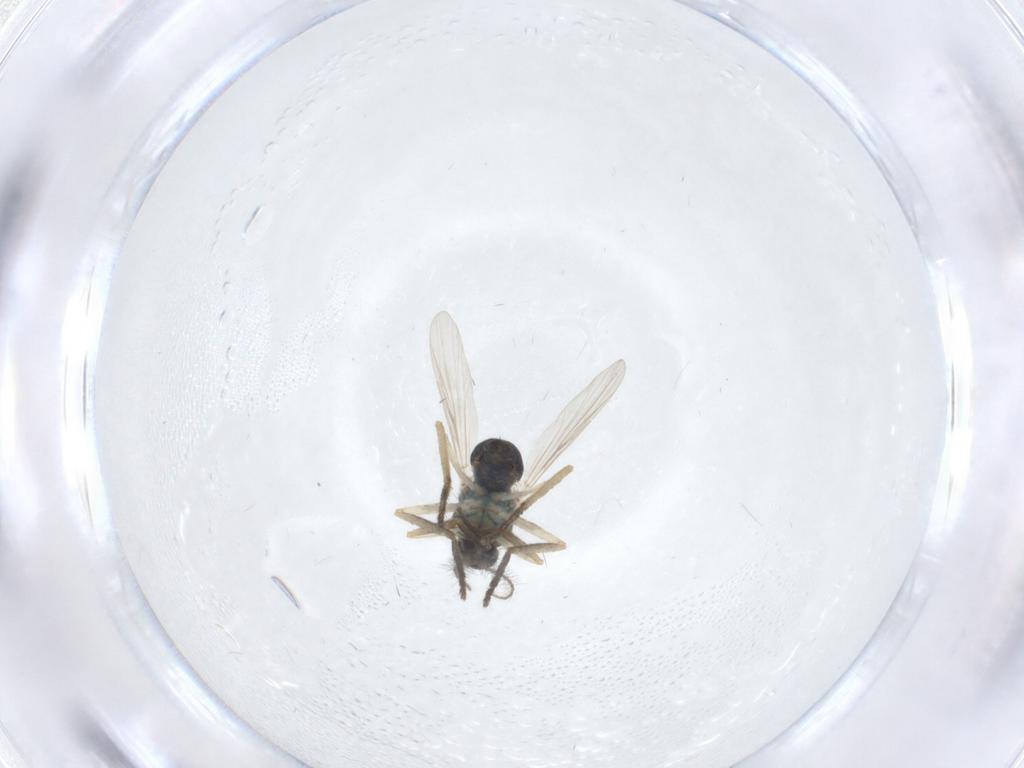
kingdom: Animalia
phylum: Arthropoda
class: Insecta
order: Diptera
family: Ceratopogonidae
